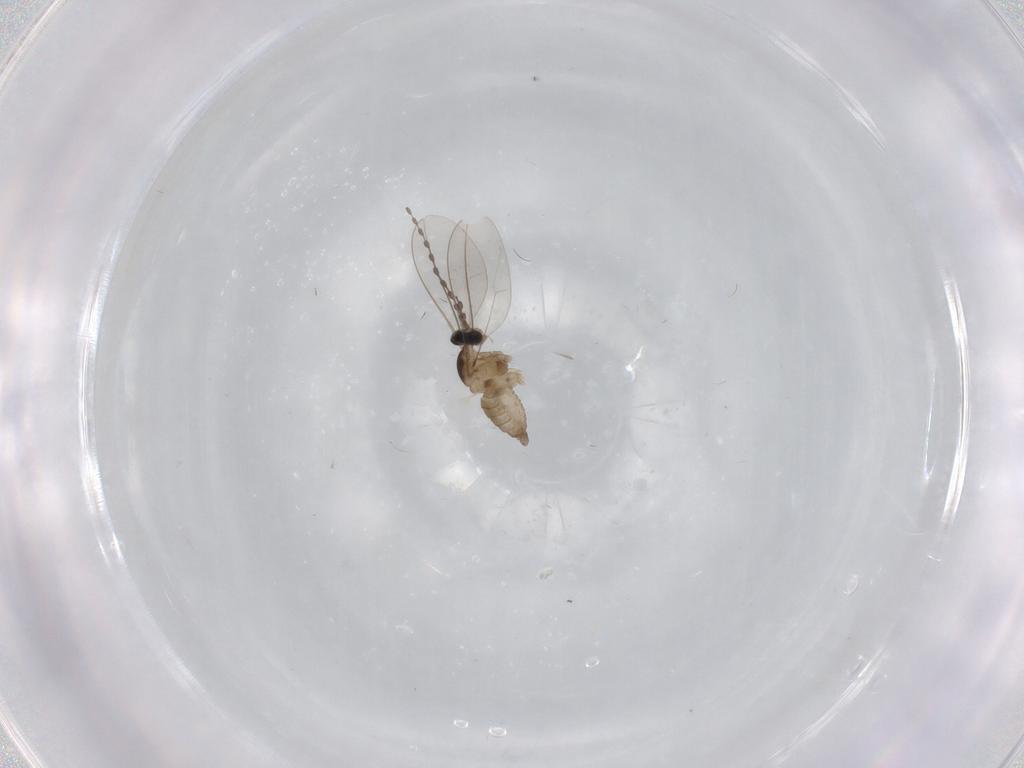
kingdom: Animalia
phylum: Arthropoda
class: Insecta
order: Diptera
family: Cecidomyiidae
